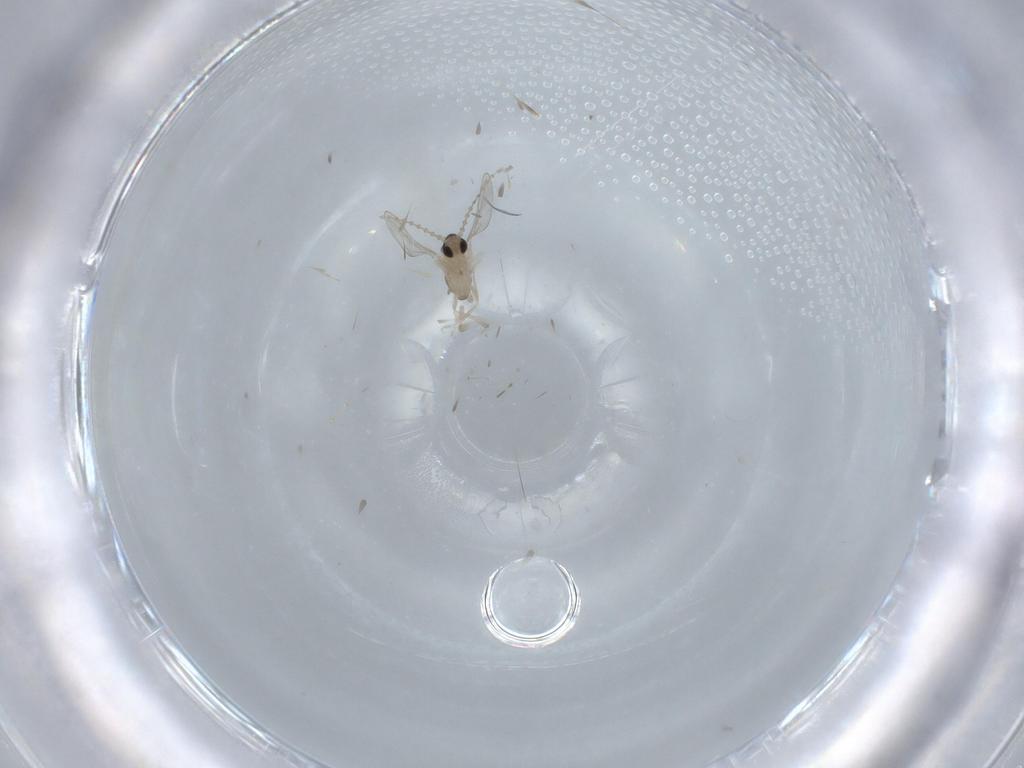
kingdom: Animalia
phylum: Arthropoda
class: Insecta
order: Diptera
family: Cecidomyiidae
